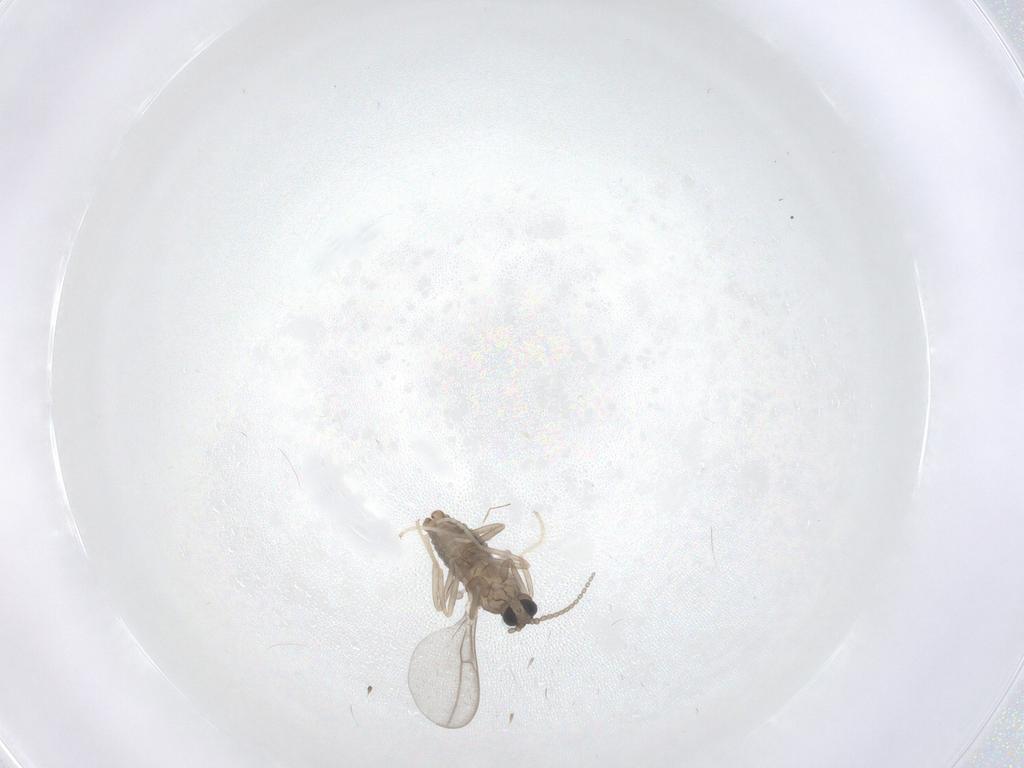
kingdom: Animalia
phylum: Arthropoda
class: Insecta
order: Diptera
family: Cecidomyiidae
